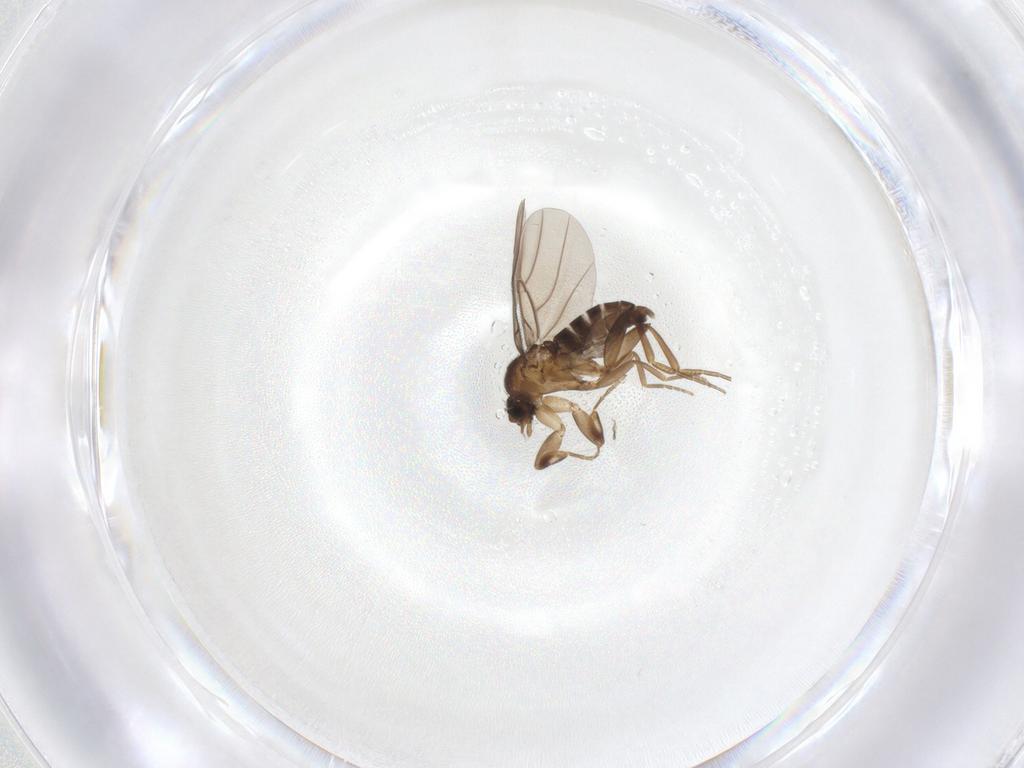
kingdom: Animalia
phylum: Arthropoda
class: Insecta
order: Diptera
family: Phoridae
